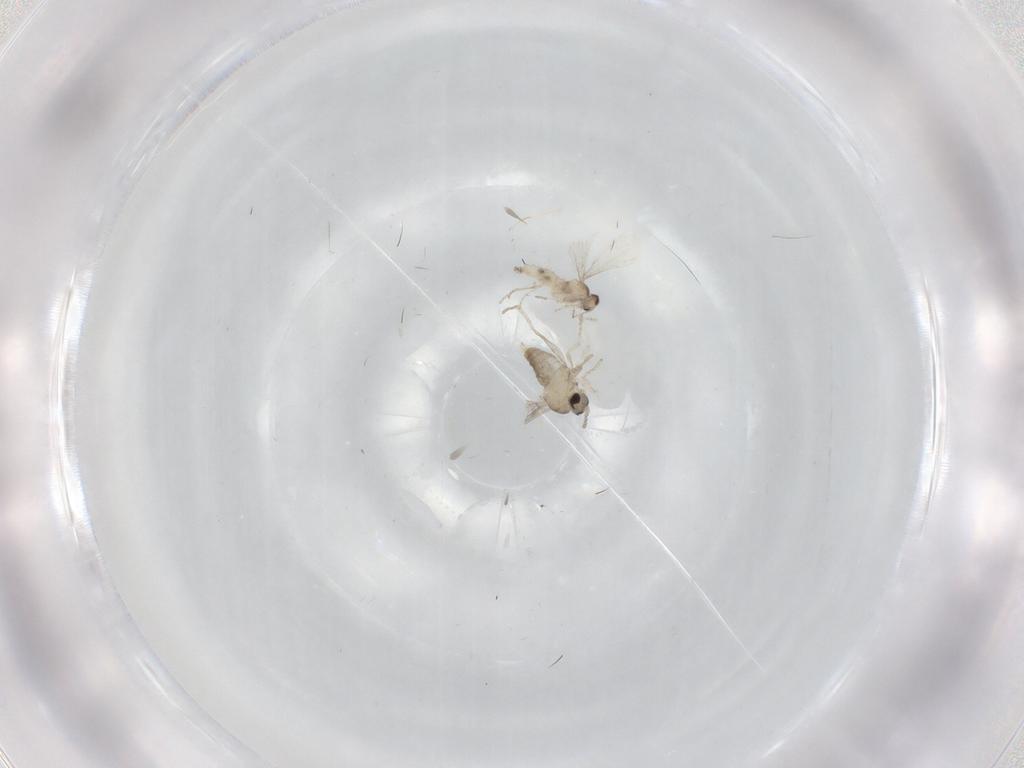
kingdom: Animalia
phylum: Arthropoda
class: Insecta
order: Diptera
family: Cecidomyiidae
